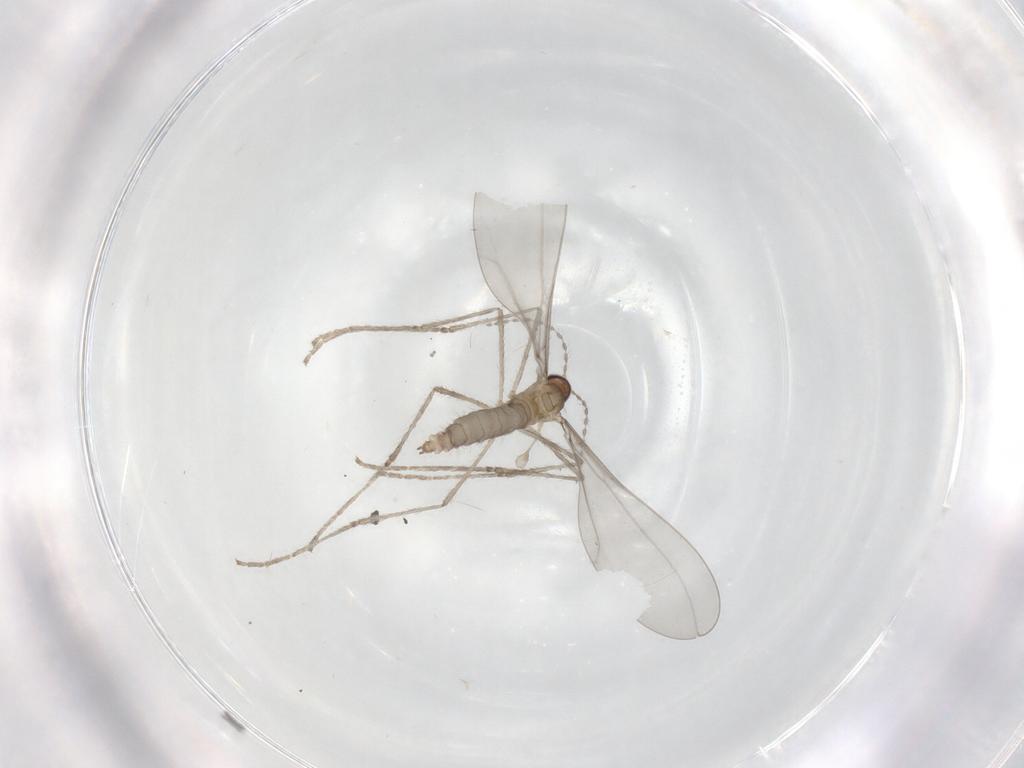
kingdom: Animalia
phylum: Arthropoda
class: Insecta
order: Diptera
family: Cecidomyiidae
